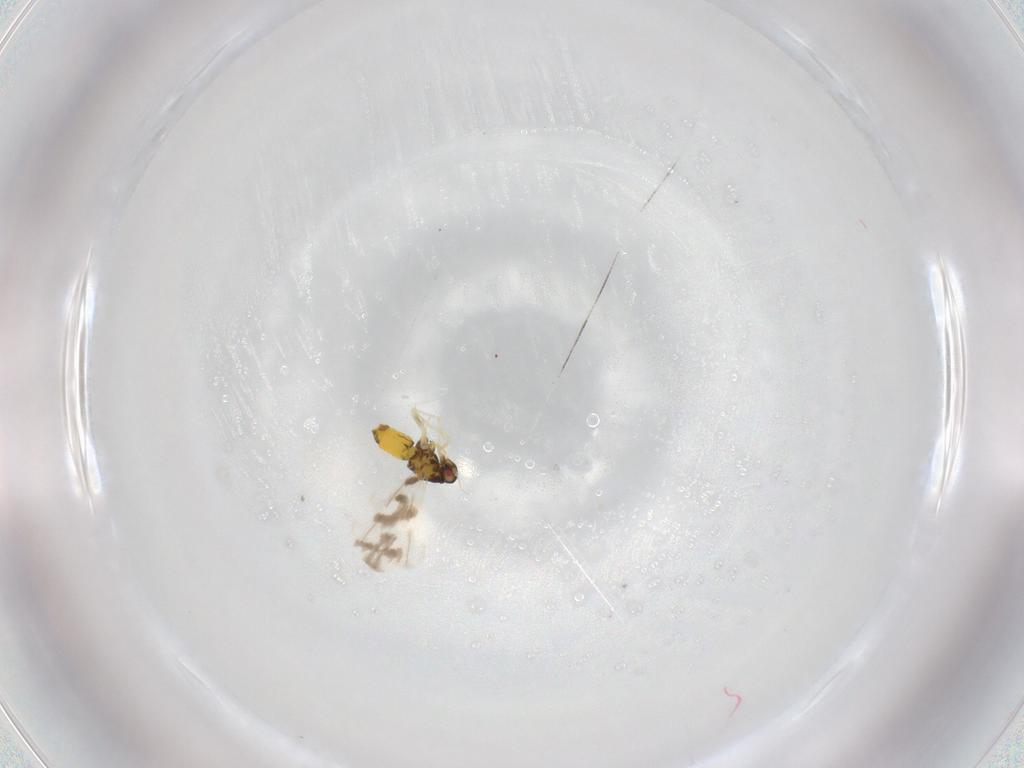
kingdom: Animalia
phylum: Arthropoda
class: Insecta
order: Hemiptera
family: Aleyrodidae
